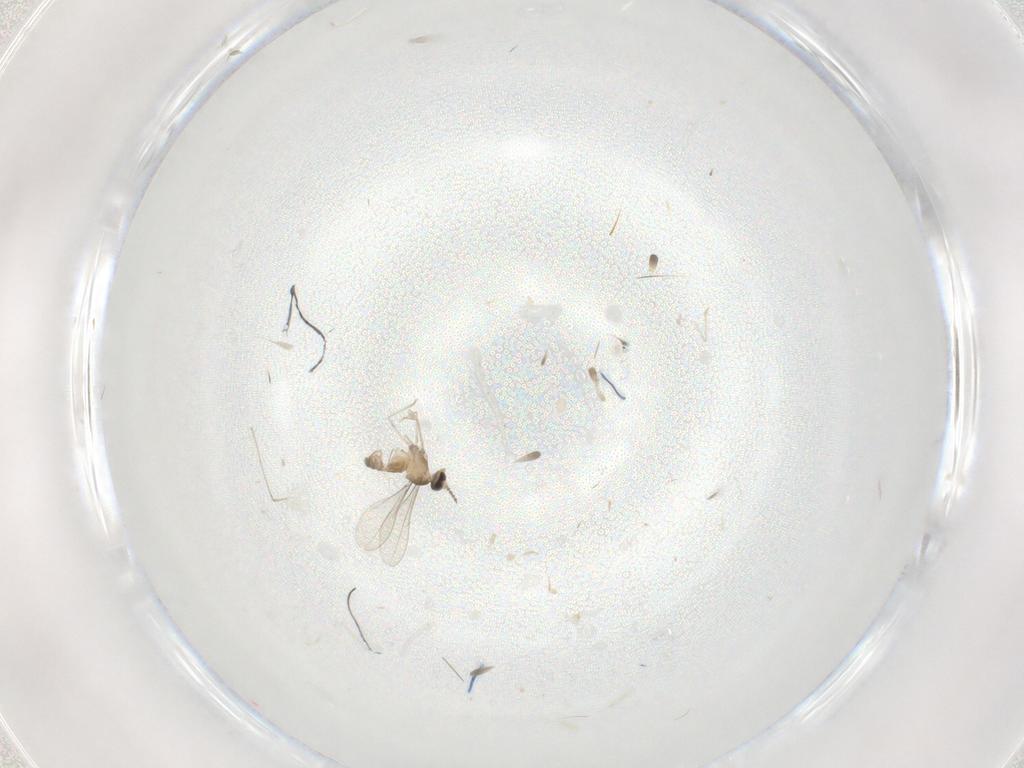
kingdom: Animalia
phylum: Arthropoda
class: Insecta
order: Diptera
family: Cecidomyiidae
